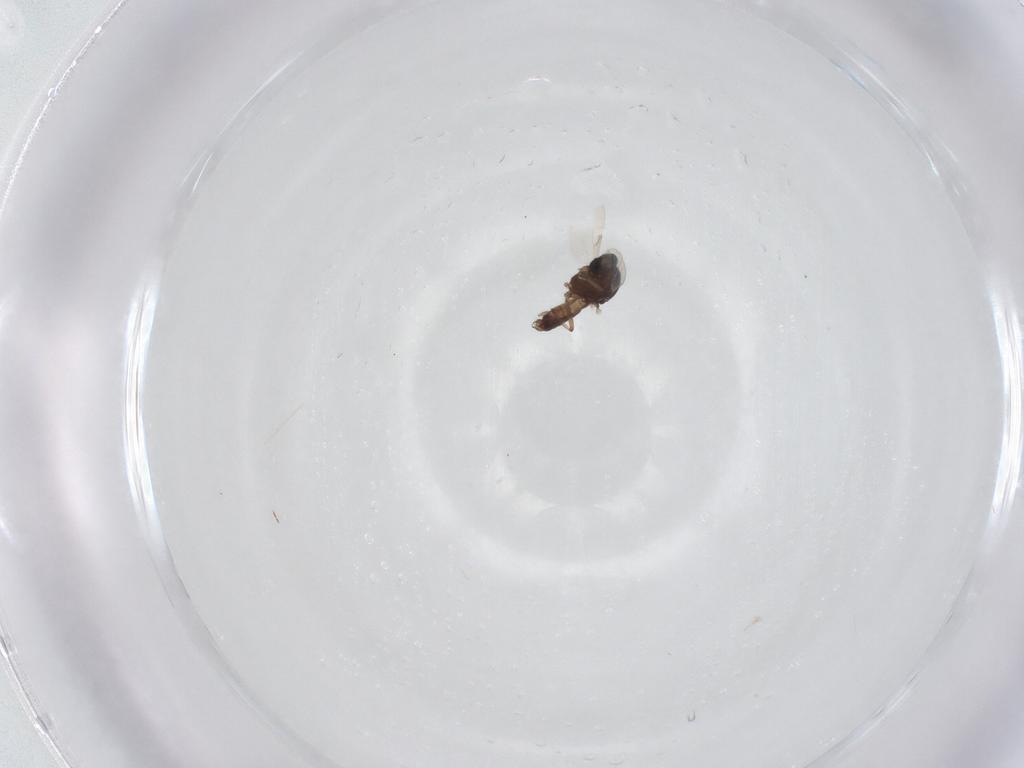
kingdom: Animalia
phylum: Arthropoda
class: Insecta
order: Diptera
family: Ceratopogonidae
